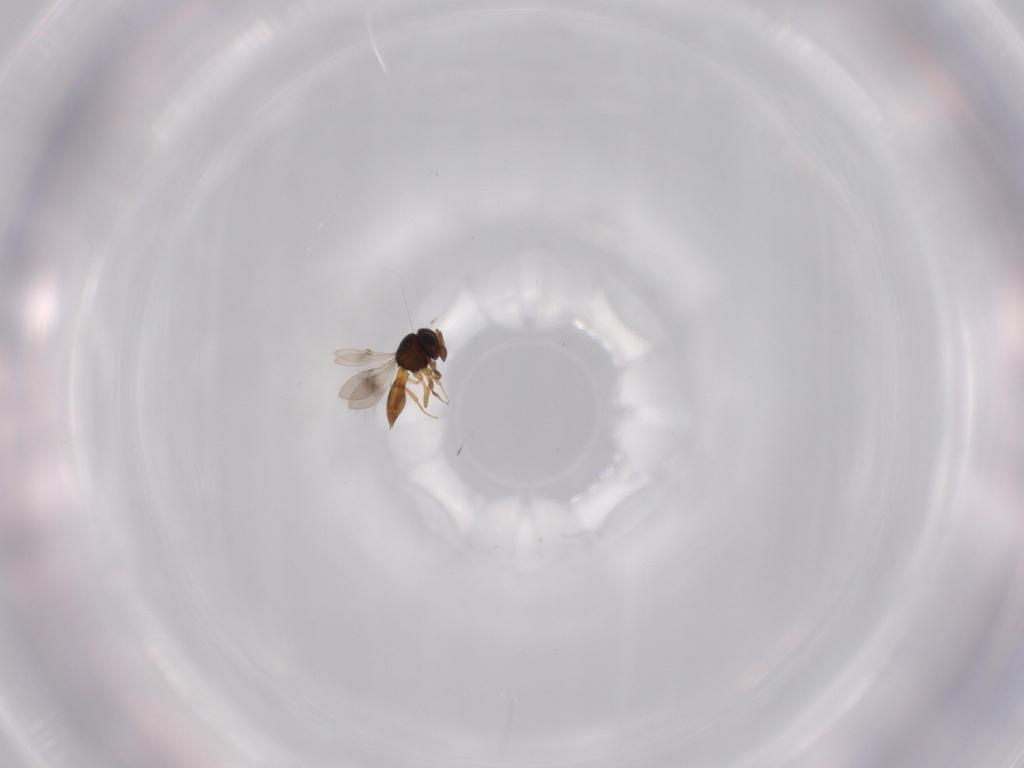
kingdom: Animalia
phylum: Arthropoda
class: Insecta
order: Hymenoptera
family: Scelionidae
